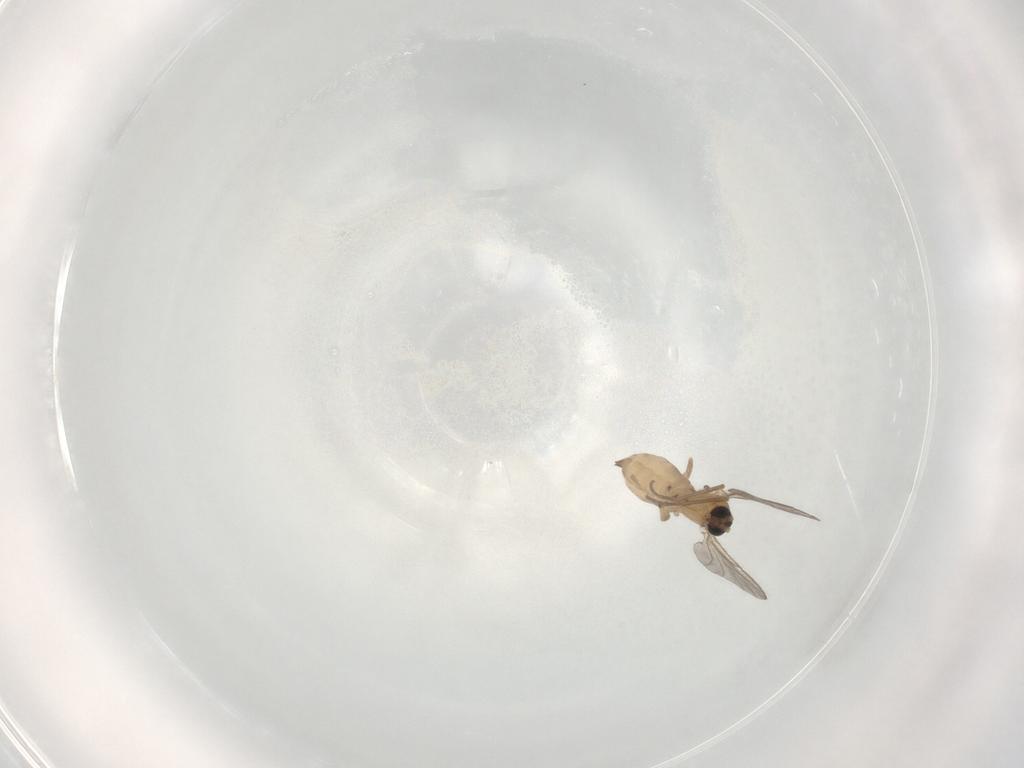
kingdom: Animalia
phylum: Arthropoda
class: Insecta
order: Diptera
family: Sciaridae
